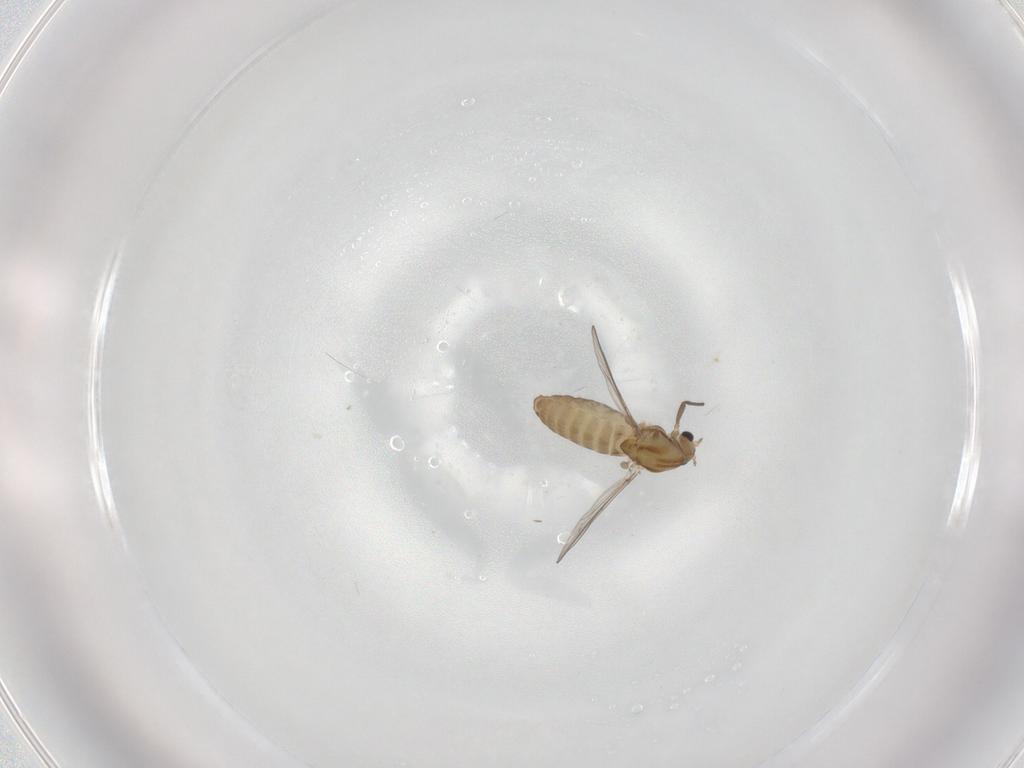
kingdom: Animalia
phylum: Arthropoda
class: Insecta
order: Diptera
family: Chironomidae
